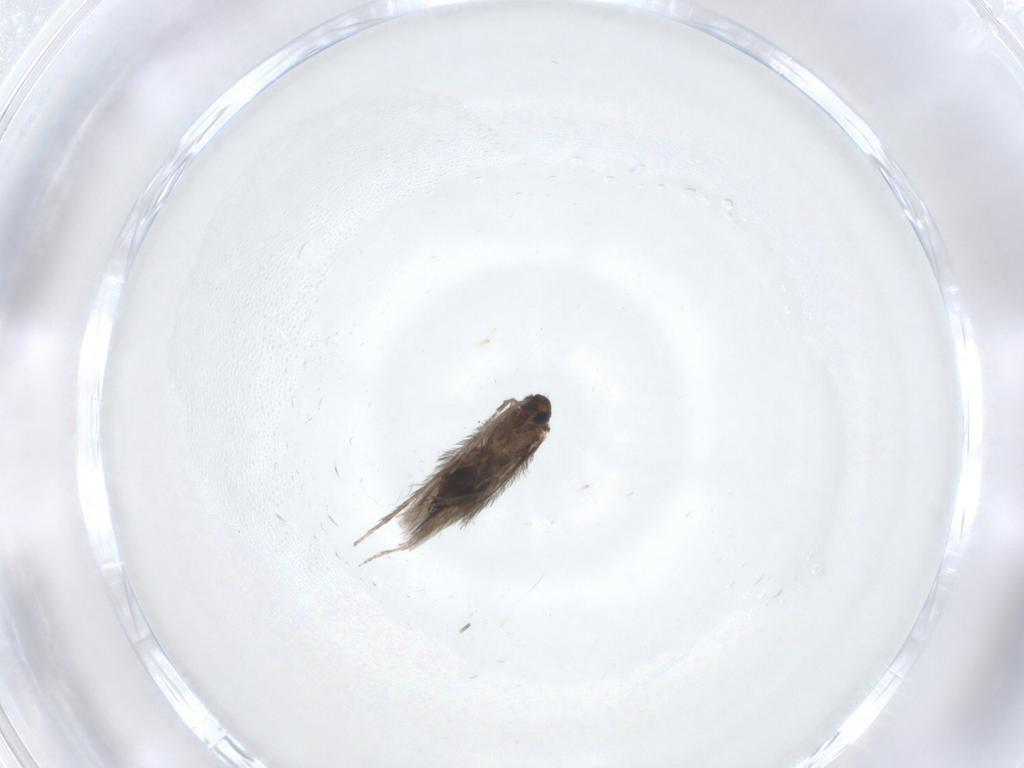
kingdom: Animalia
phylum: Arthropoda
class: Insecta
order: Trichoptera
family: Hydroptilidae
